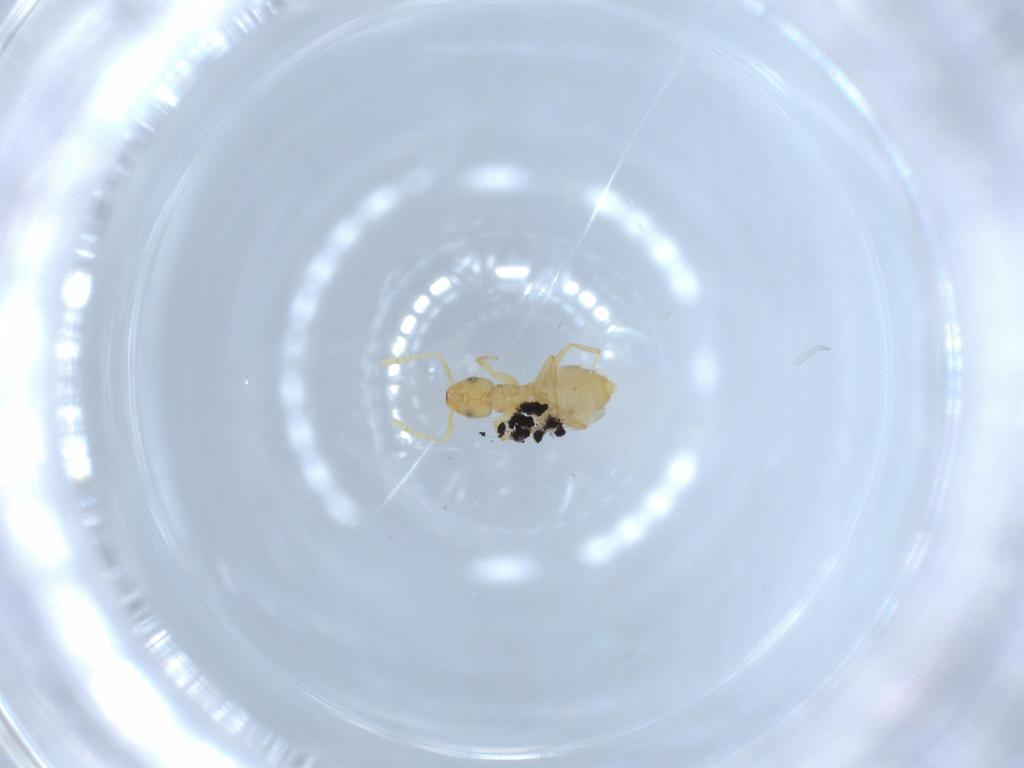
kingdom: Animalia
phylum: Arthropoda
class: Insecta
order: Hymenoptera
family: Formicidae
